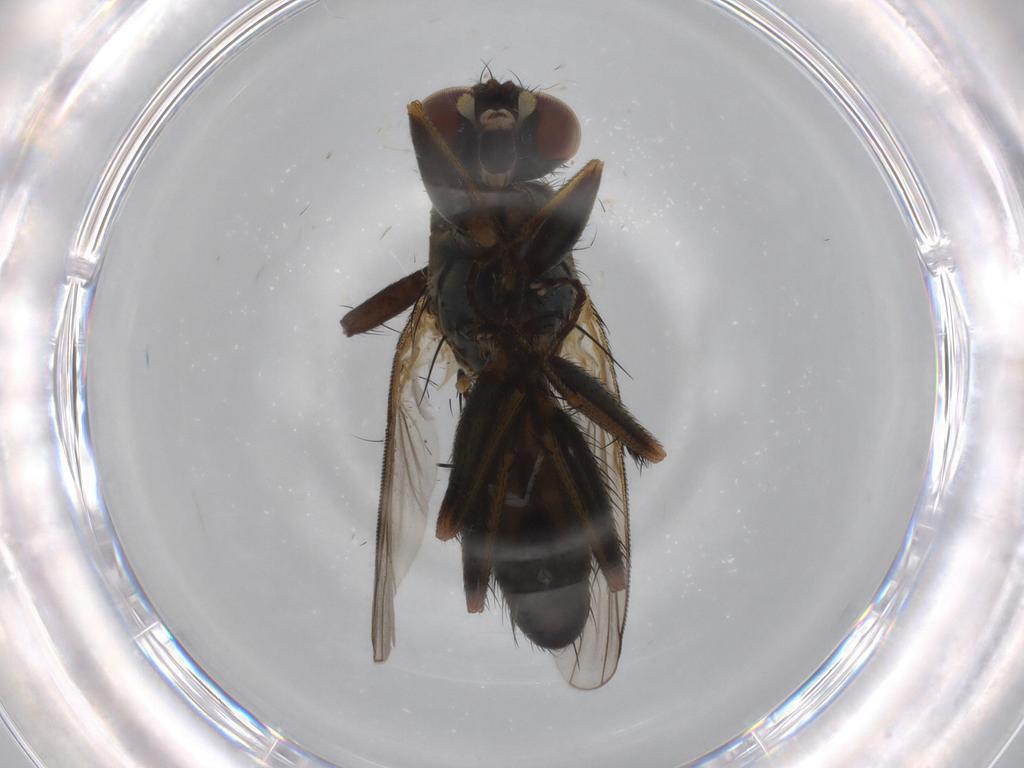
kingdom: Animalia
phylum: Arthropoda
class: Insecta
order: Diptera
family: Muscidae
